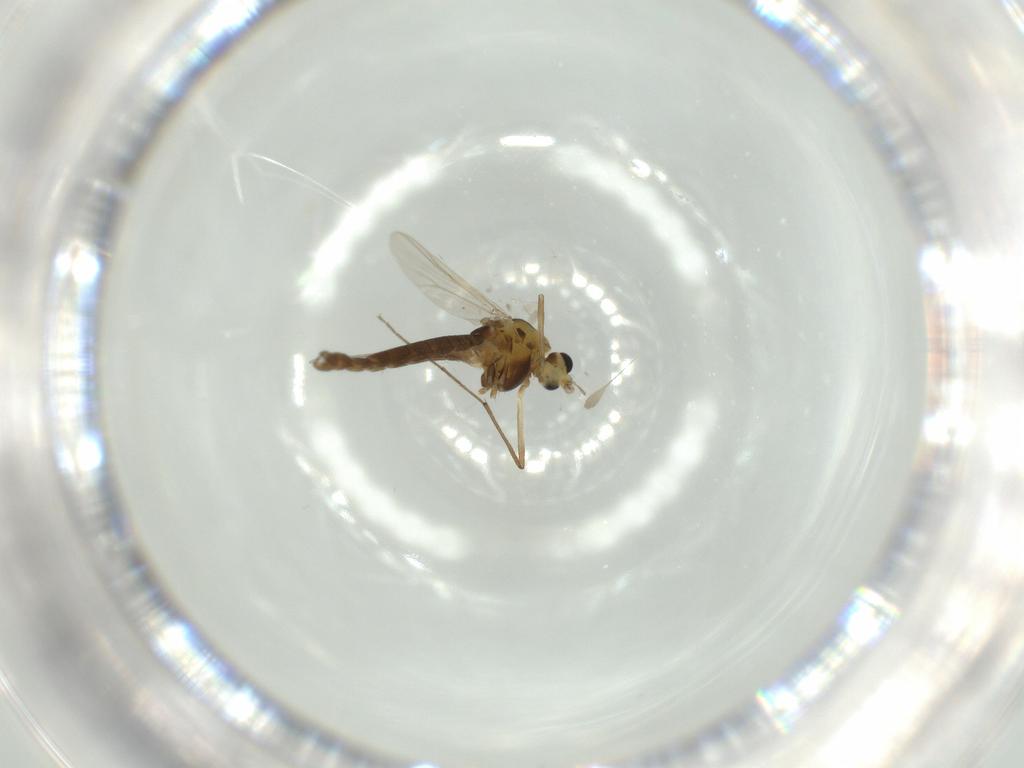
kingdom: Animalia
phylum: Arthropoda
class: Insecta
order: Diptera
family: Chironomidae
